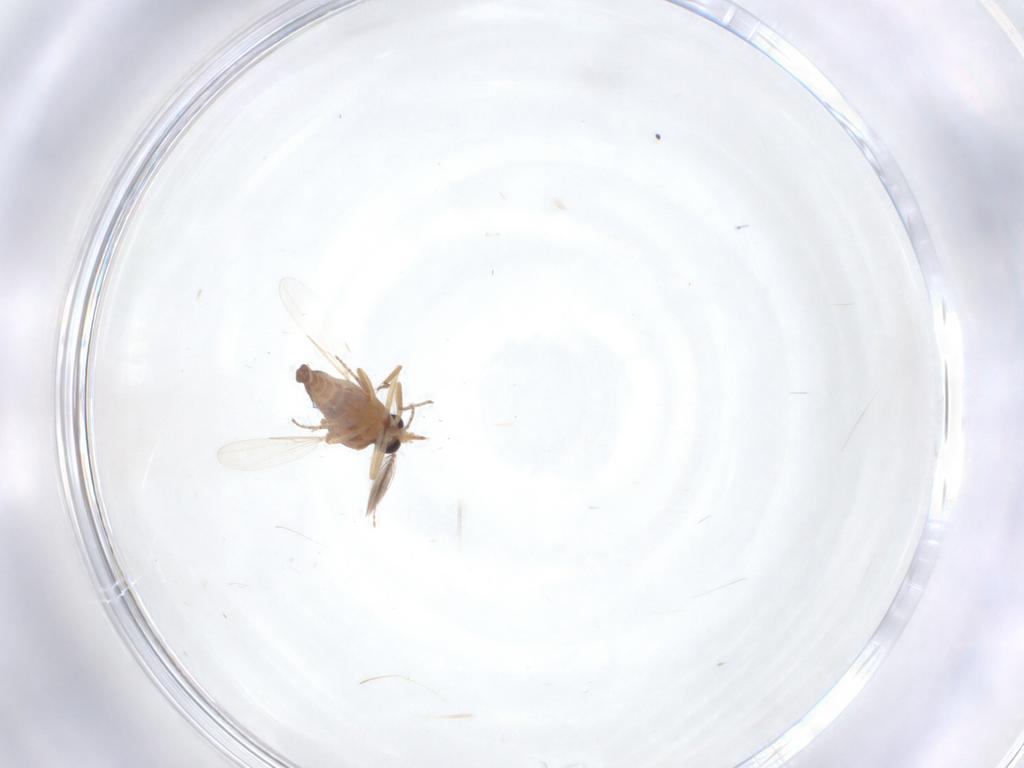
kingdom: Animalia
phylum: Arthropoda
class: Insecta
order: Diptera
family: Ceratopogonidae
